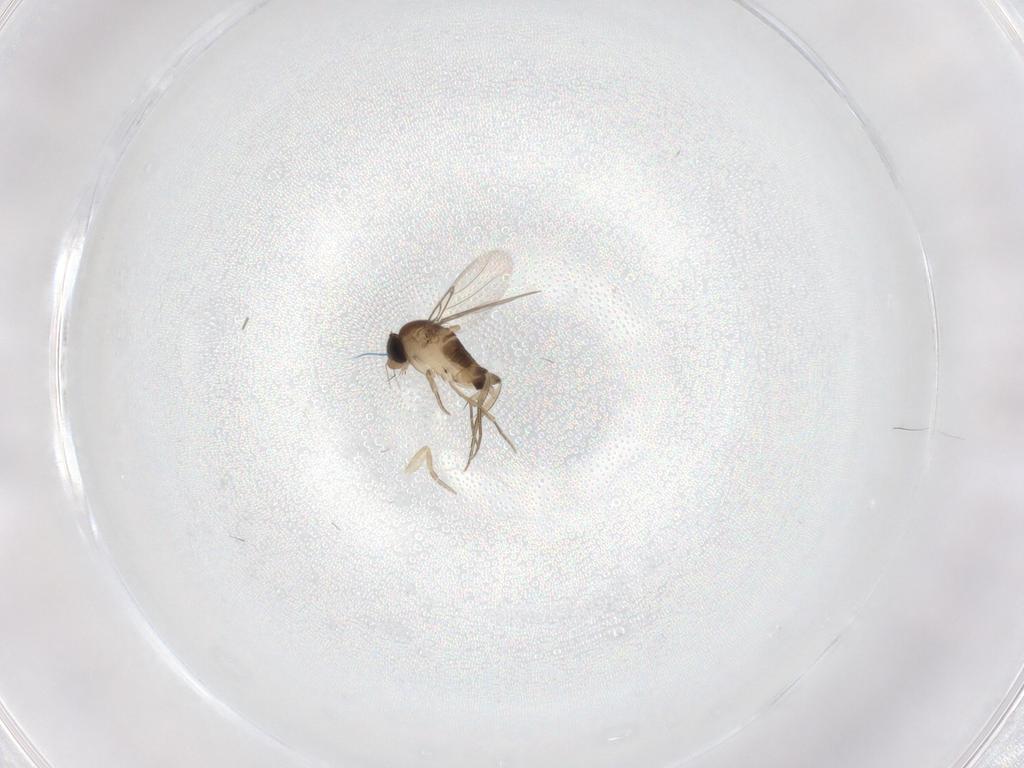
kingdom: Animalia
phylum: Arthropoda
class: Insecta
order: Diptera
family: Phoridae
